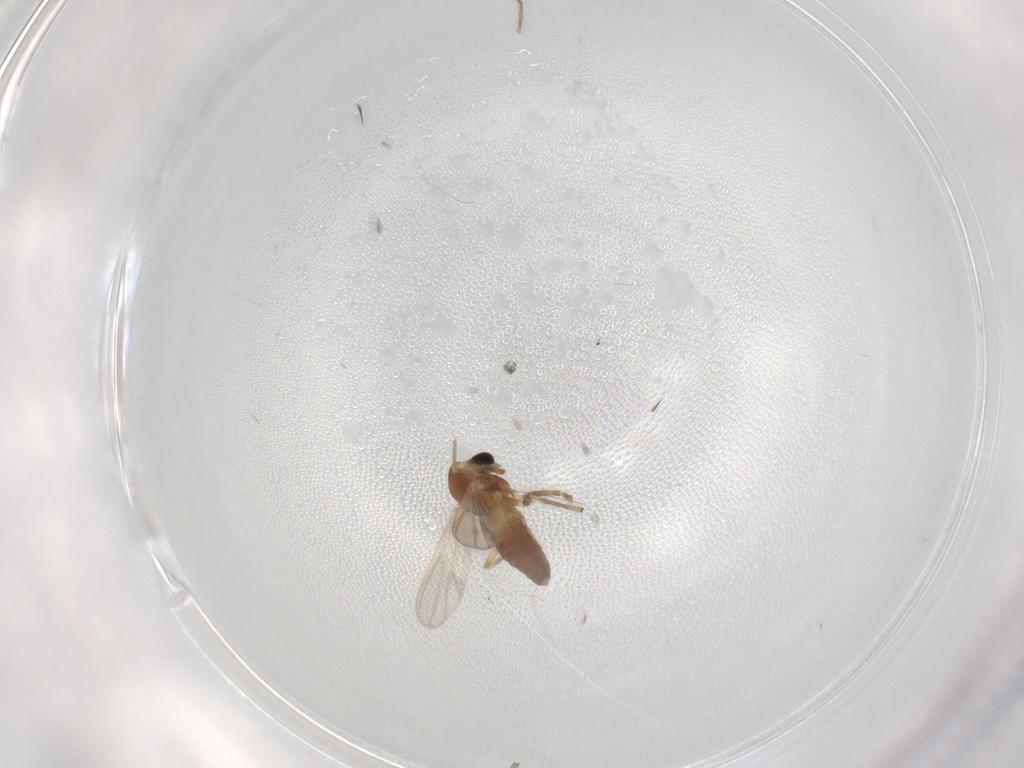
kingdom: Animalia
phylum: Arthropoda
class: Insecta
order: Diptera
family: Chironomidae
